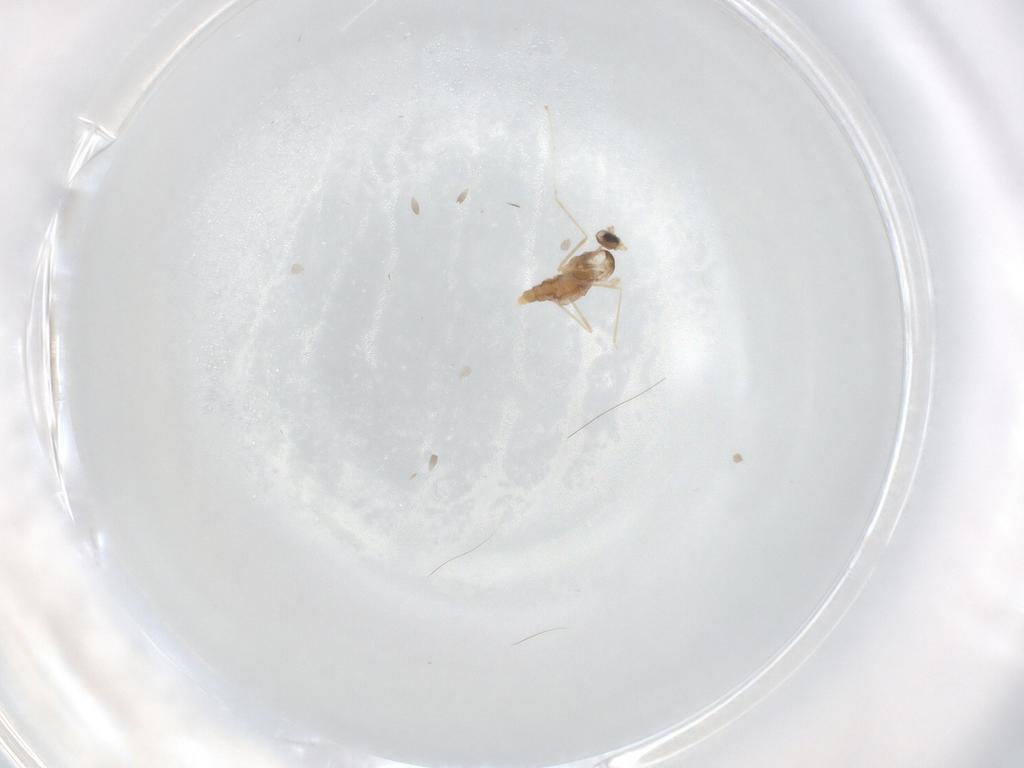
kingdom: Animalia
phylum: Arthropoda
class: Insecta
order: Diptera
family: Cecidomyiidae
